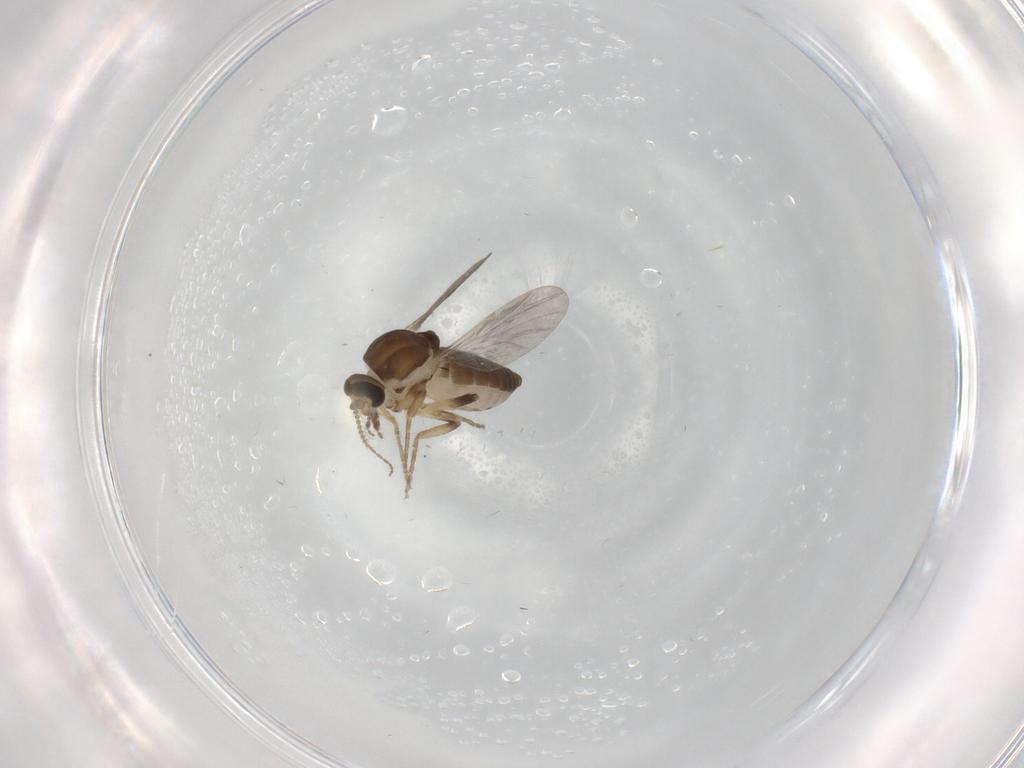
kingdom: Animalia
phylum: Arthropoda
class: Insecta
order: Diptera
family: Ceratopogonidae
